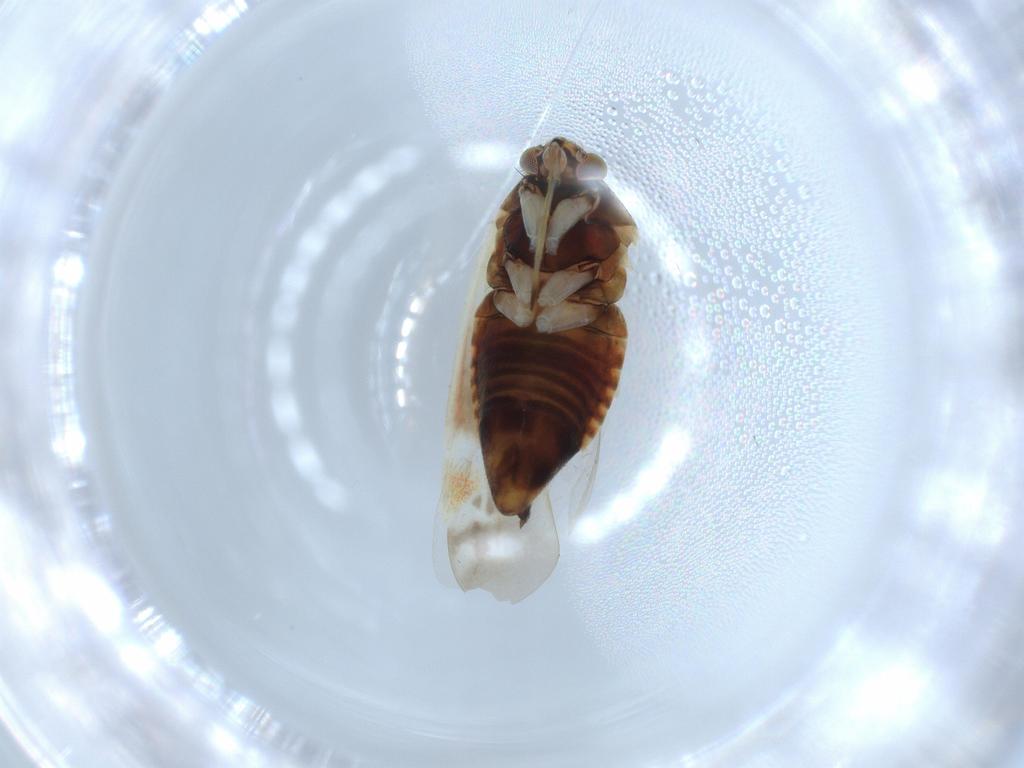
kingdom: Animalia
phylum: Arthropoda
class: Insecta
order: Hemiptera
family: Aphididae
